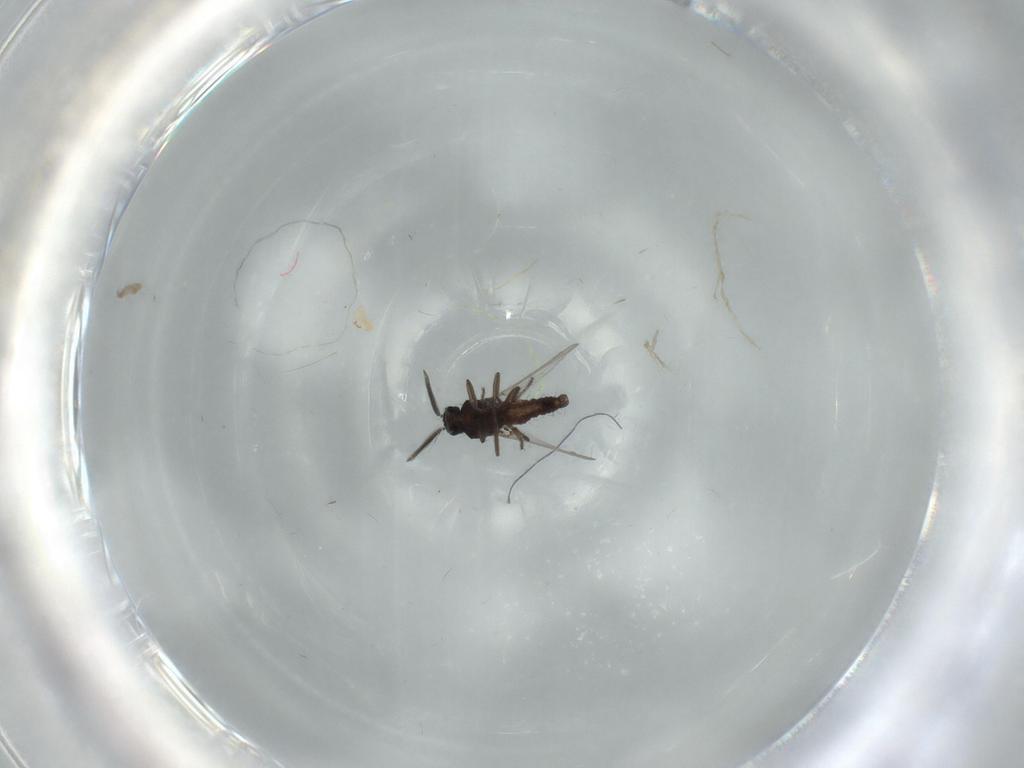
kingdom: Animalia
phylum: Arthropoda
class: Insecta
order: Diptera
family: Ceratopogonidae
